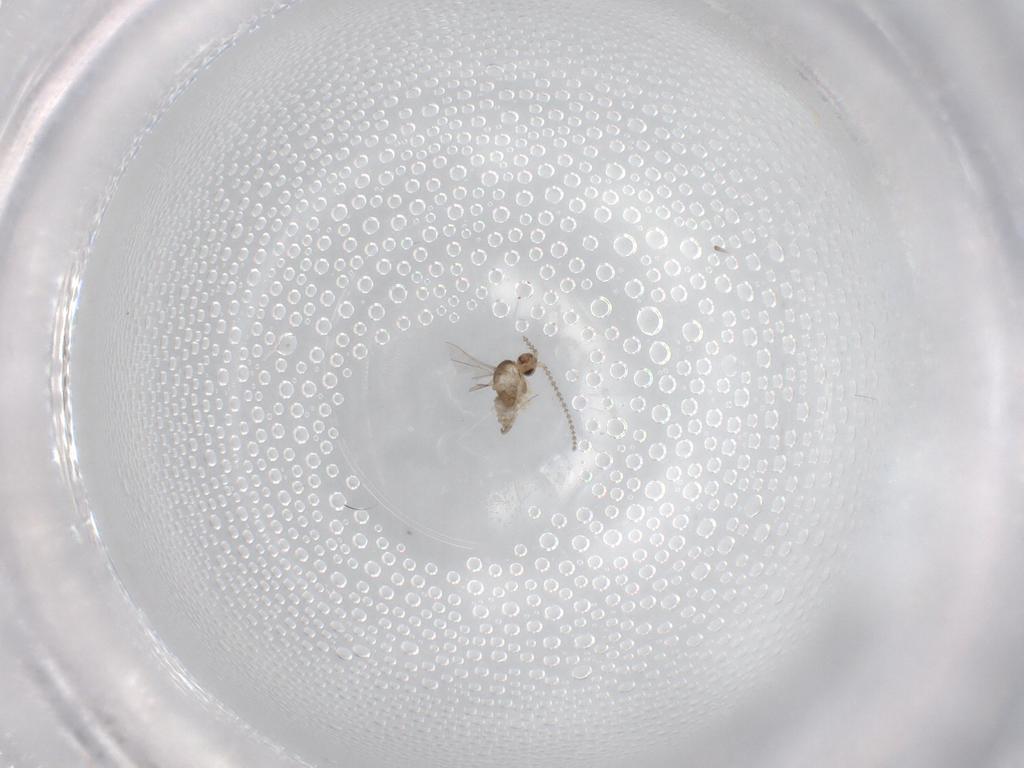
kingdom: Animalia
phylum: Arthropoda
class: Insecta
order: Diptera
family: Cecidomyiidae
